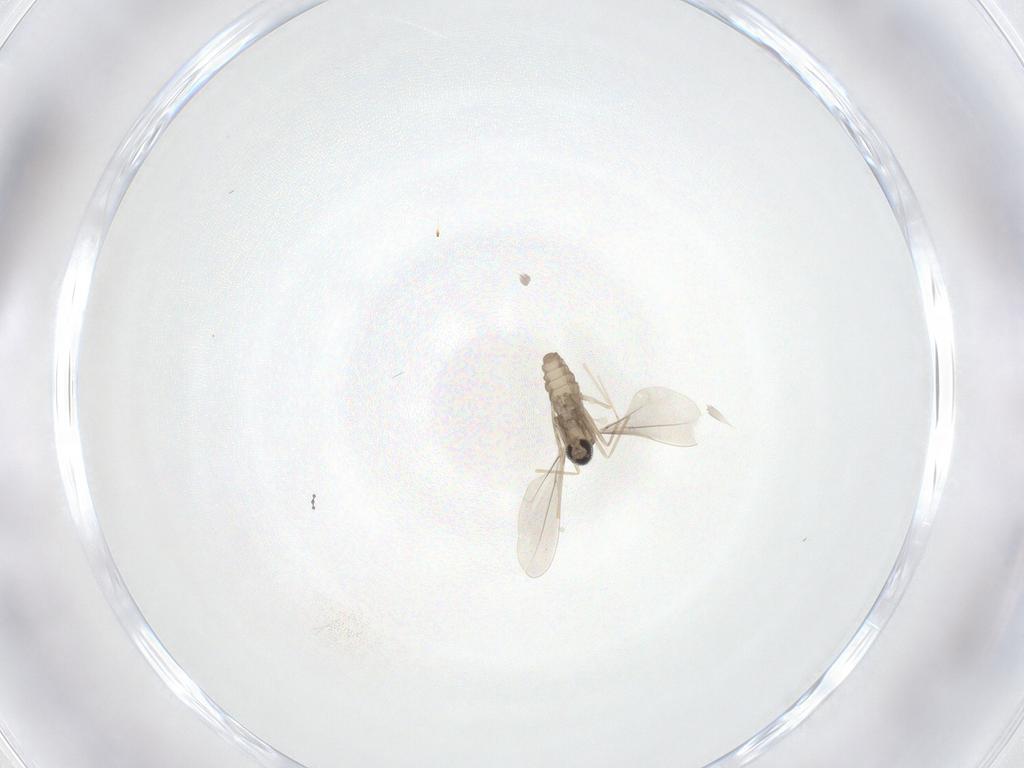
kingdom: Animalia
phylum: Arthropoda
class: Insecta
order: Diptera
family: Cecidomyiidae
